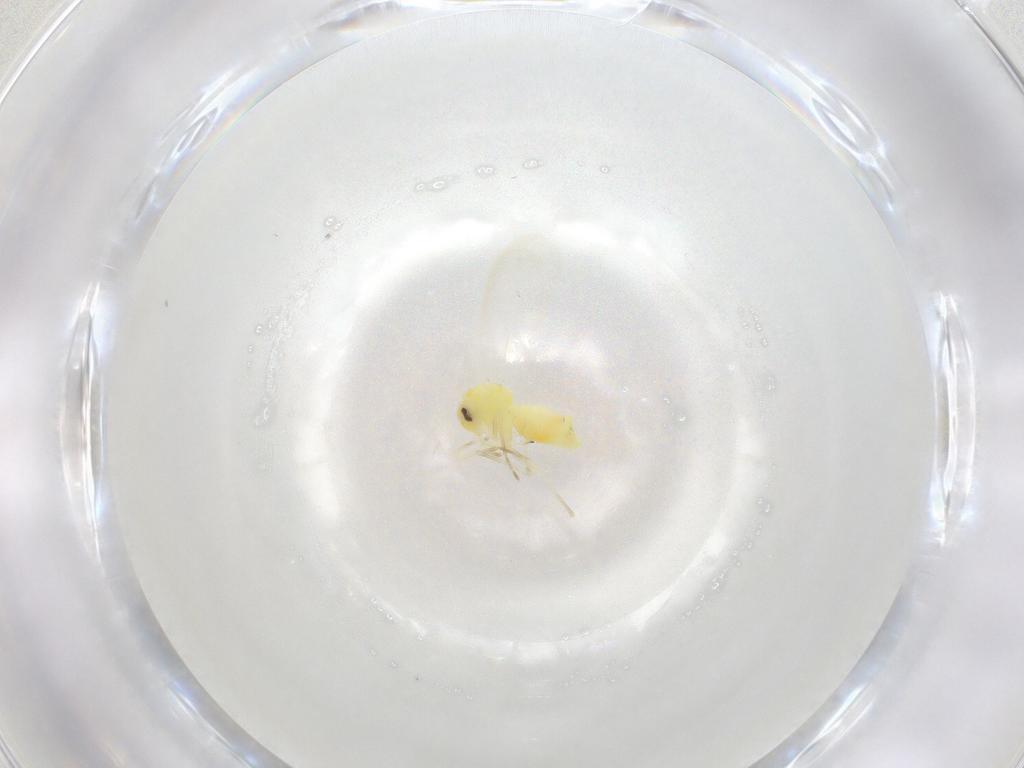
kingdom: Animalia
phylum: Arthropoda
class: Insecta
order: Hemiptera
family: Aleyrodidae
